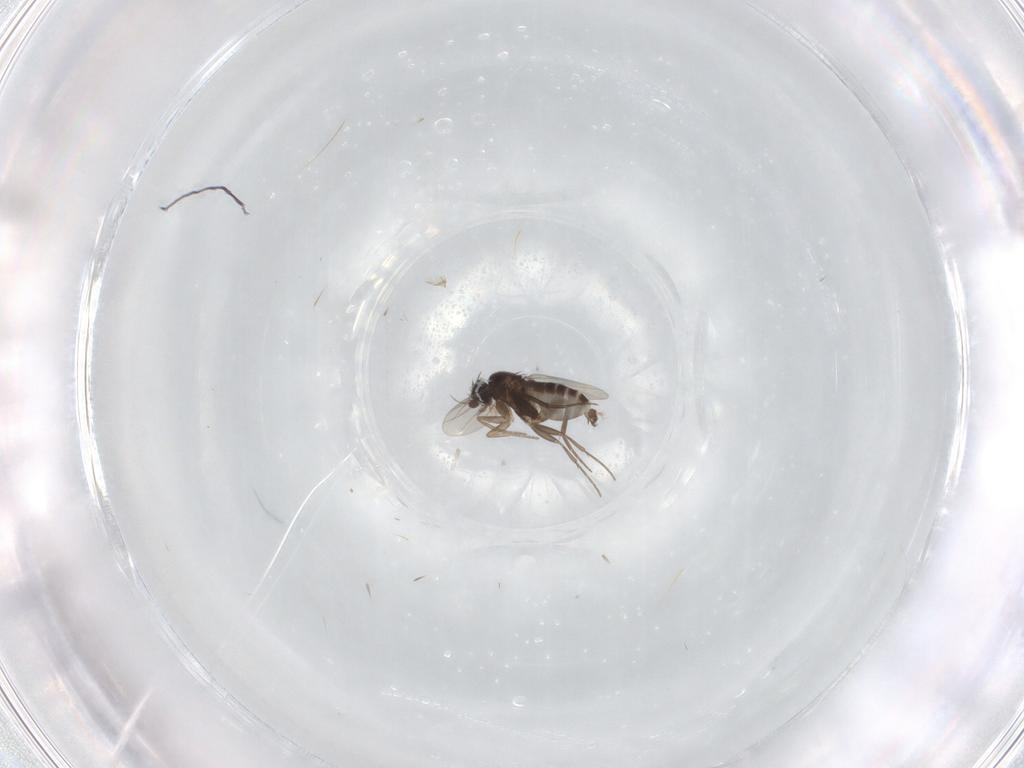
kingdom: Animalia
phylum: Arthropoda
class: Insecta
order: Diptera
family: Phoridae
